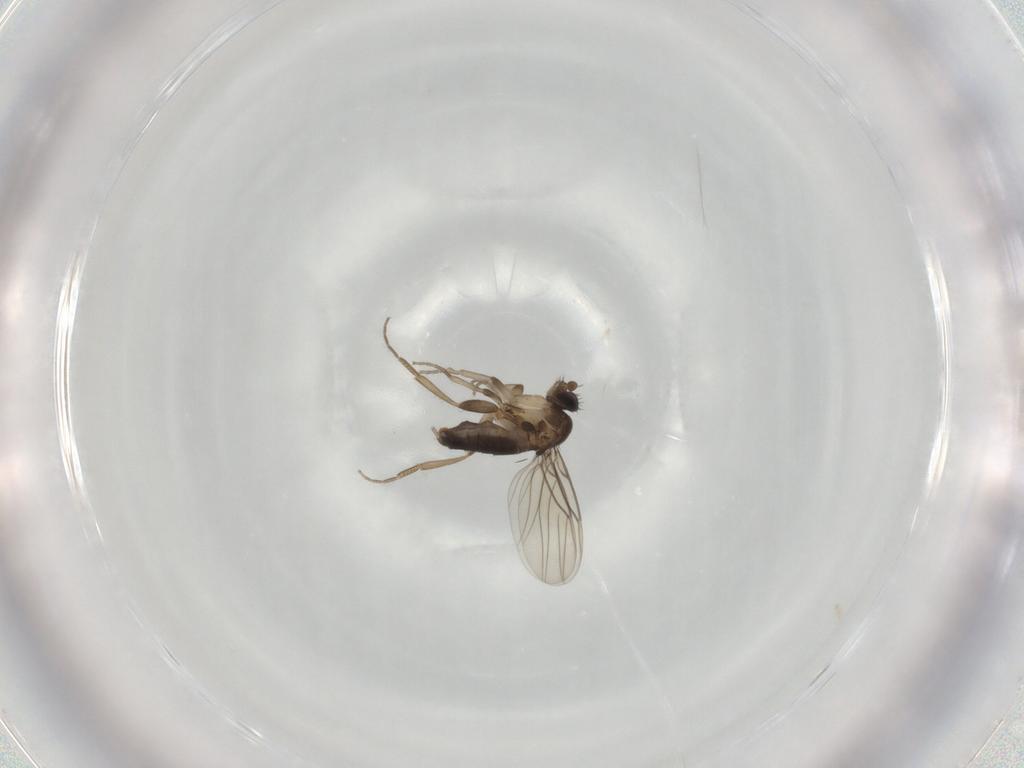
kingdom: Animalia
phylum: Arthropoda
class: Insecta
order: Diptera
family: Phoridae
